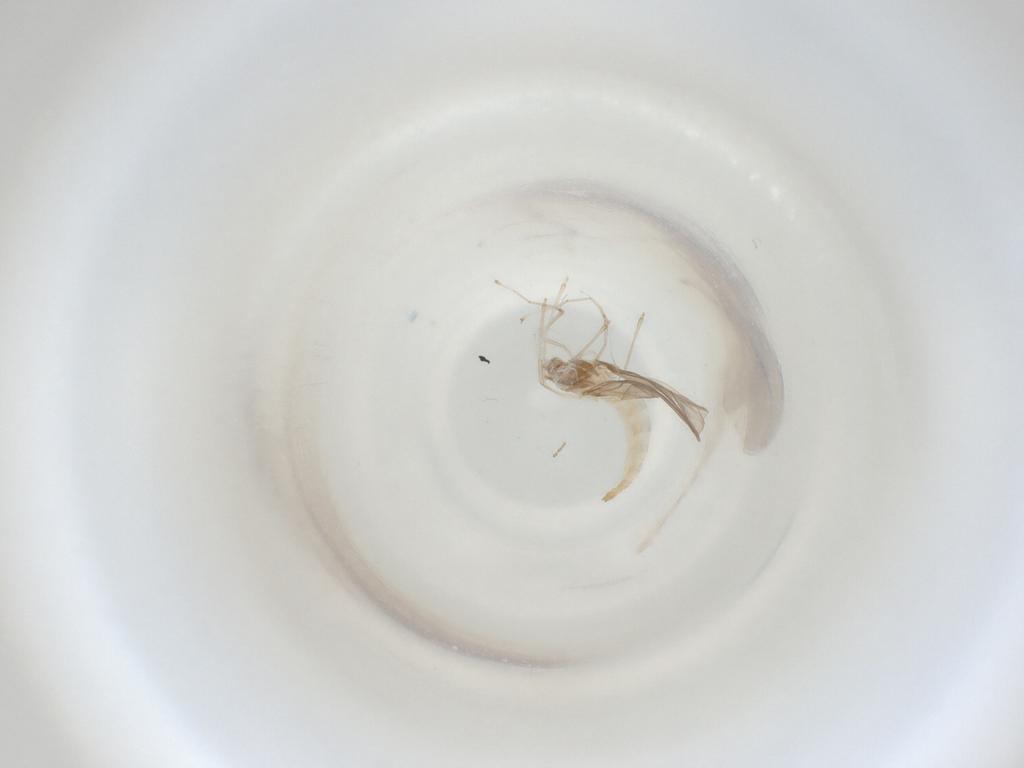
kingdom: Animalia
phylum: Arthropoda
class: Insecta
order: Diptera
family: Cecidomyiidae
